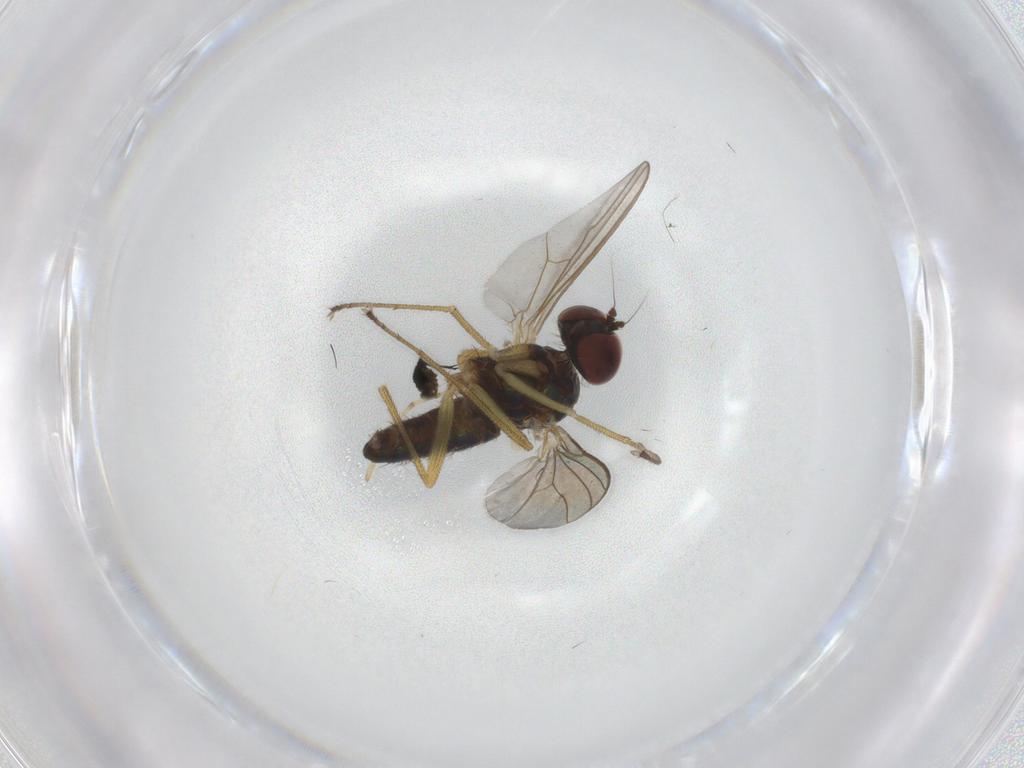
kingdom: Animalia
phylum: Arthropoda
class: Insecta
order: Diptera
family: Dolichopodidae
